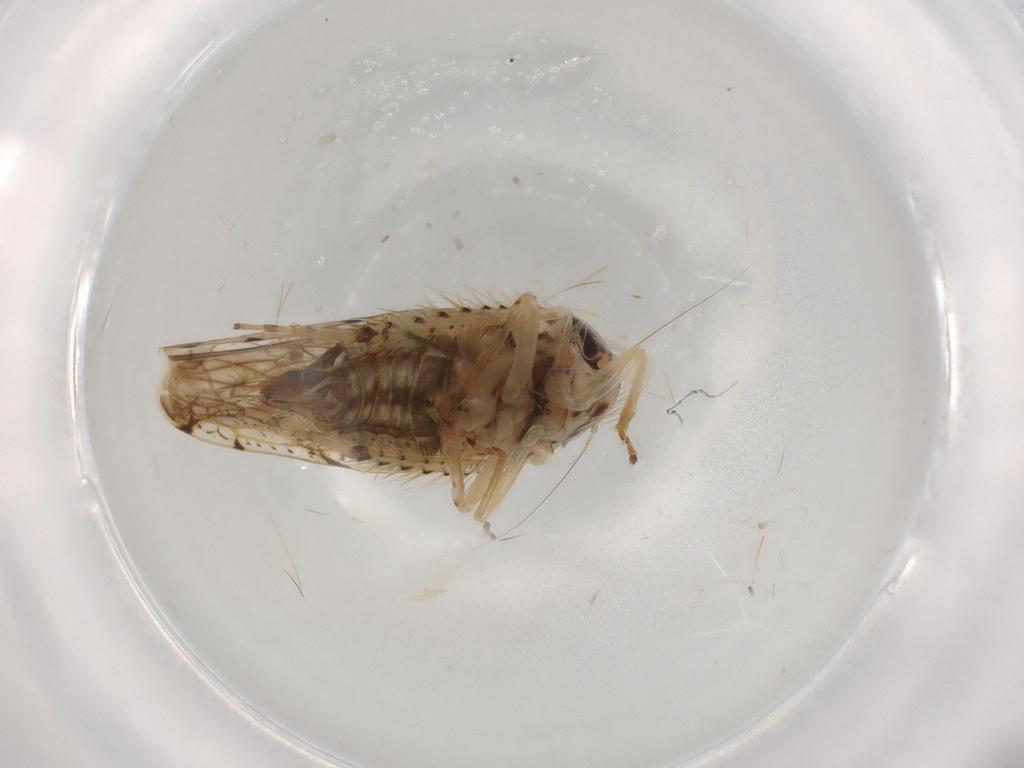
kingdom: Animalia
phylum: Arthropoda
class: Insecta
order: Hemiptera
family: Cicadellidae
